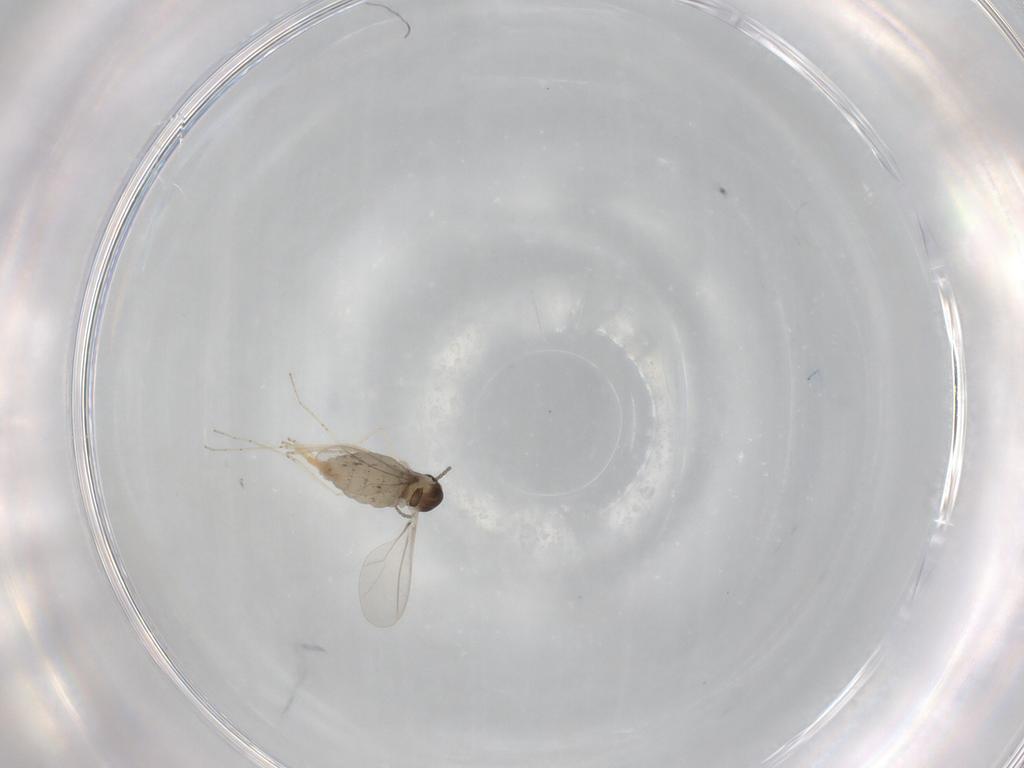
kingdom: Animalia
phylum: Arthropoda
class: Insecta
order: Diptera
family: Cecidomyiidae
